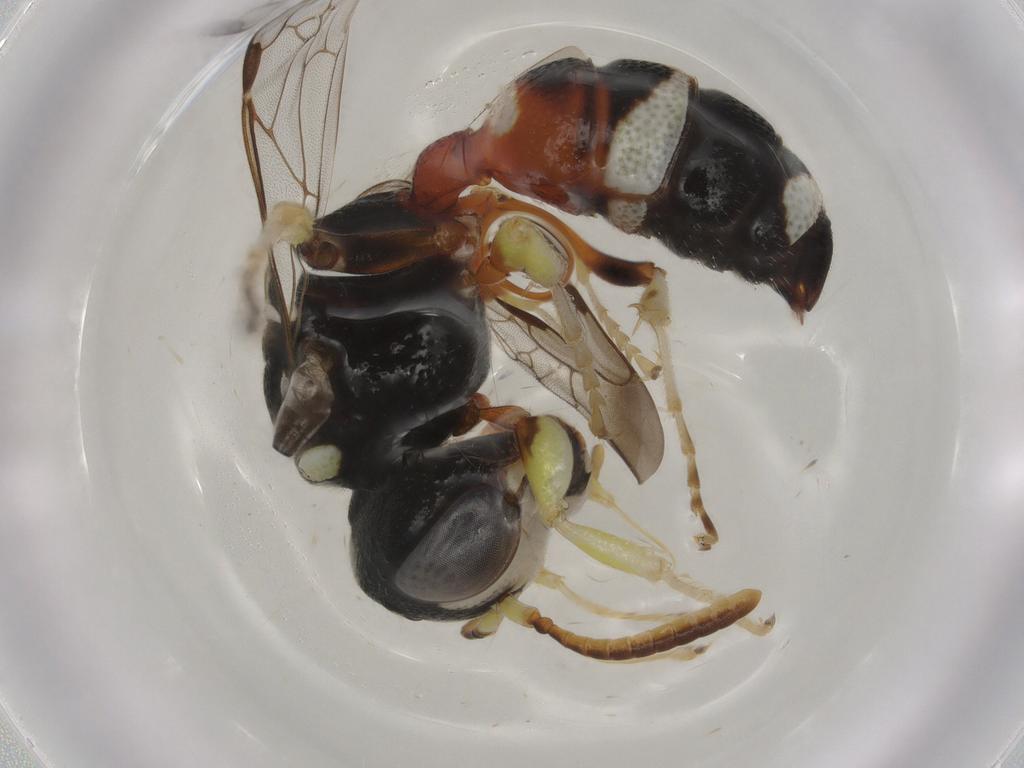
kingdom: Animalia
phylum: Arthropoda
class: Insecta
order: Hymenoptera
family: Philanthidae
